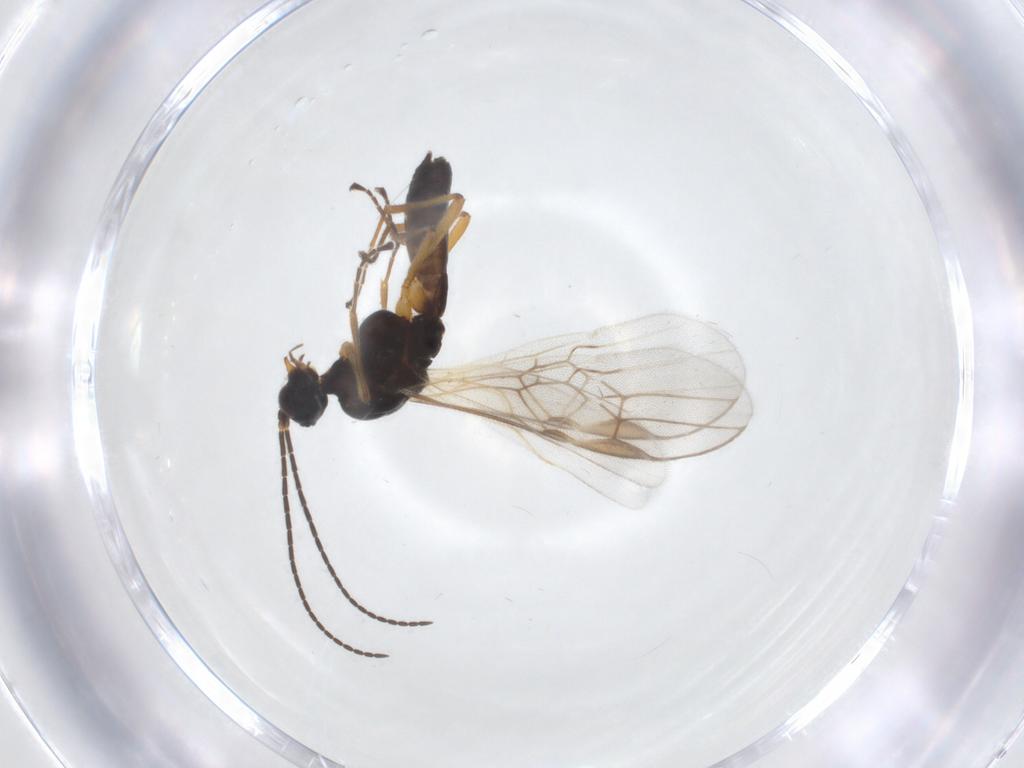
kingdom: Animalia
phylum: Arthropoda
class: Insecta
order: Hymenoptera
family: Braconidae
